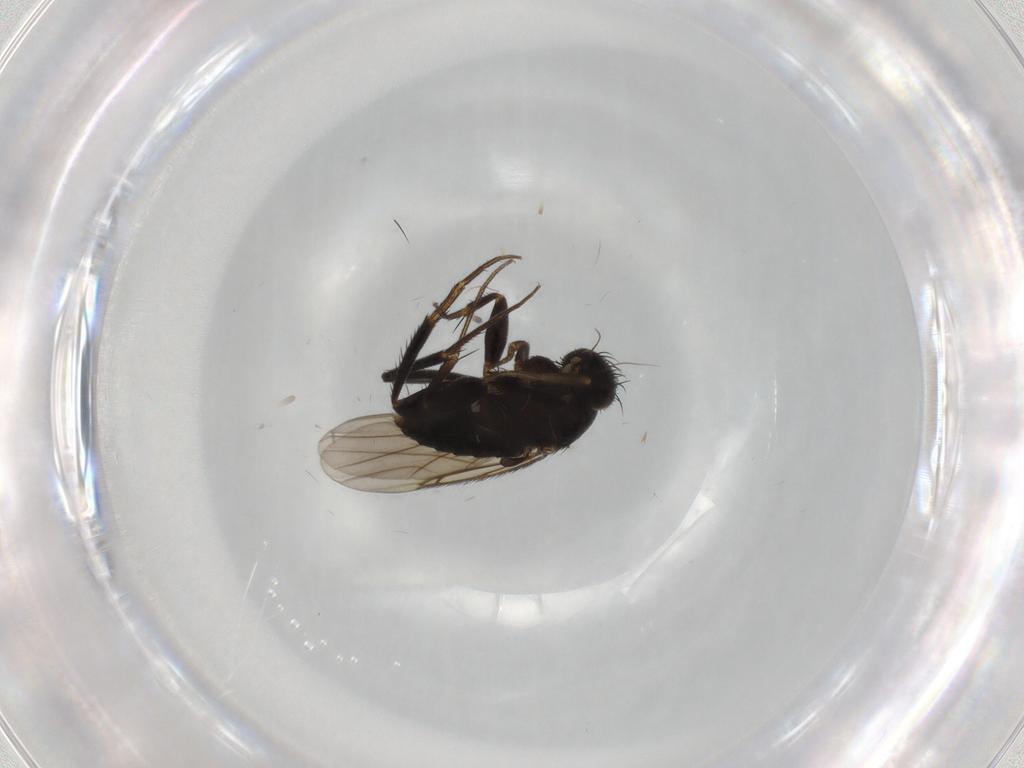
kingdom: Animalia
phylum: Arthropoda
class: Insecta
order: Diptera
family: Phoridae
